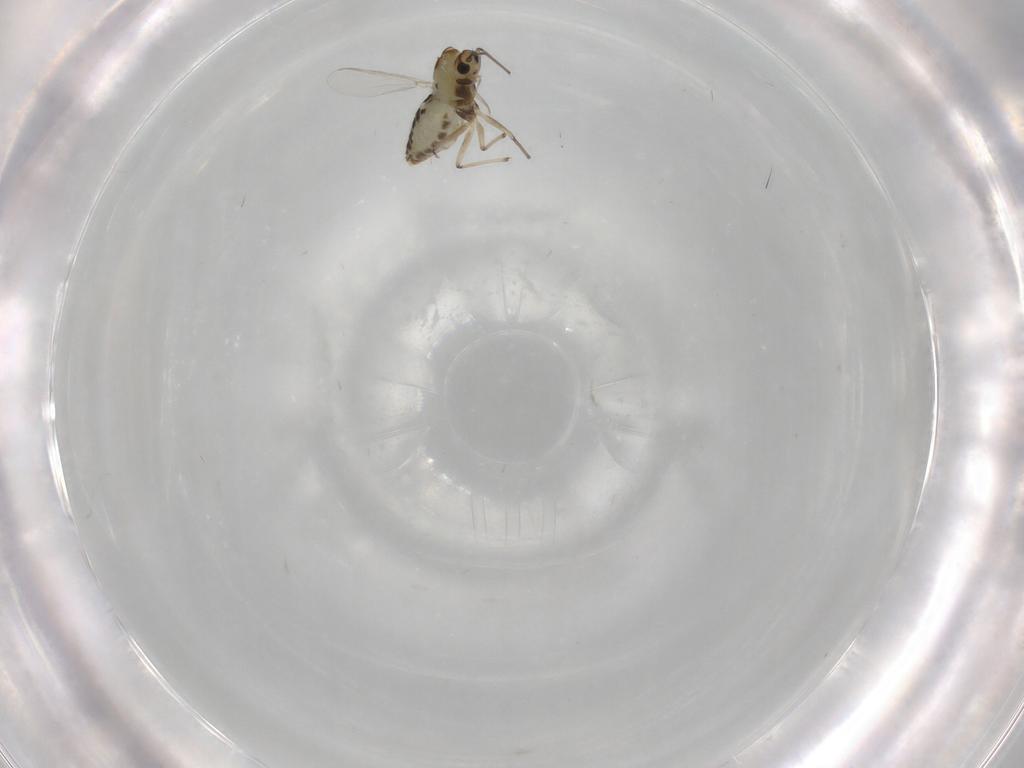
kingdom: Animalia
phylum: Arthropoda
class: Insecta
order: Diptera
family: Chironomidae
